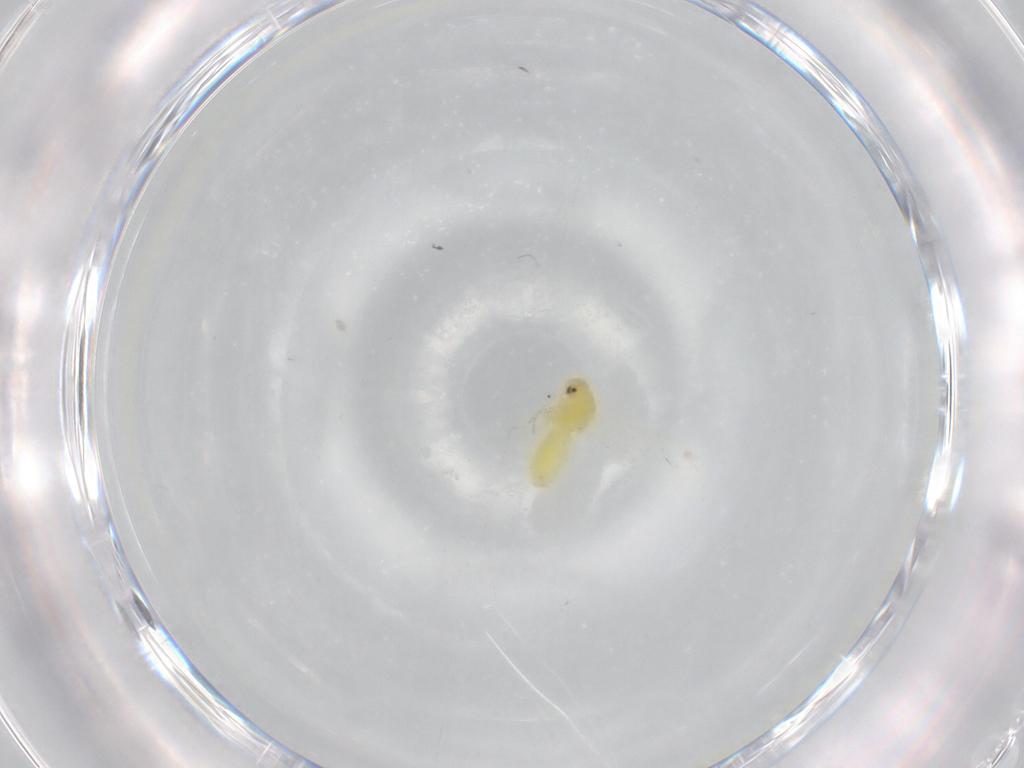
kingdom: Animalia
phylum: Arthropoda
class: Insecta
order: Hemiptera
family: Aleyrodidae
